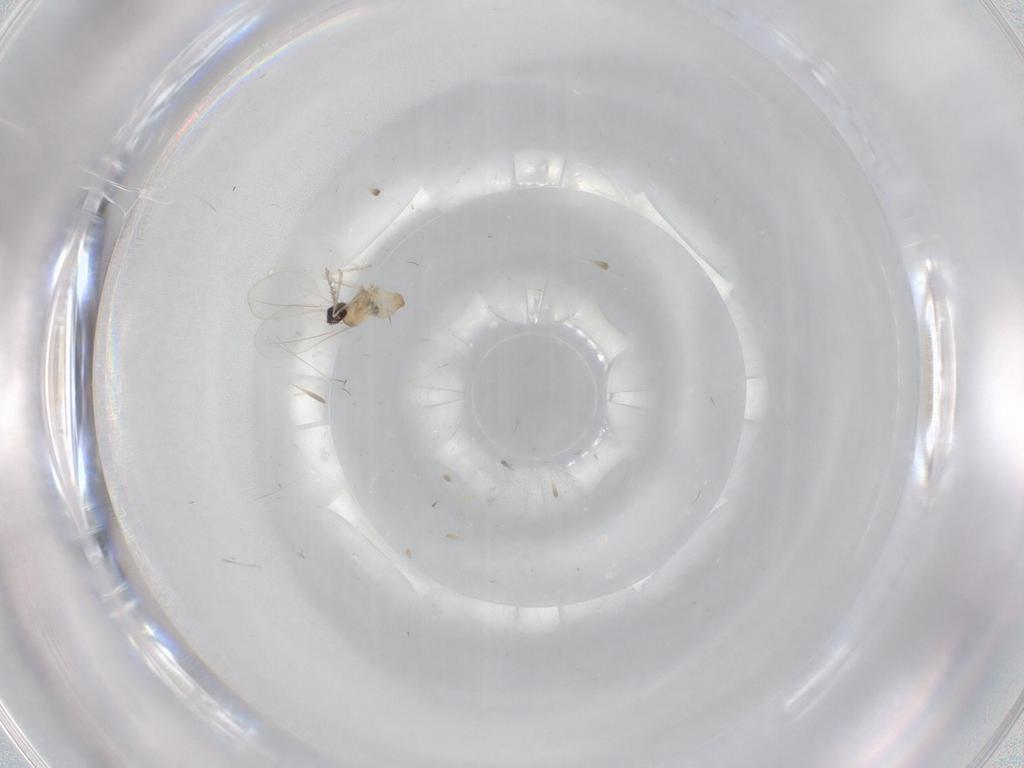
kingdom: Animalia
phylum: Arthropoda
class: Insecta
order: Diptera
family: Cecidomyiidae
